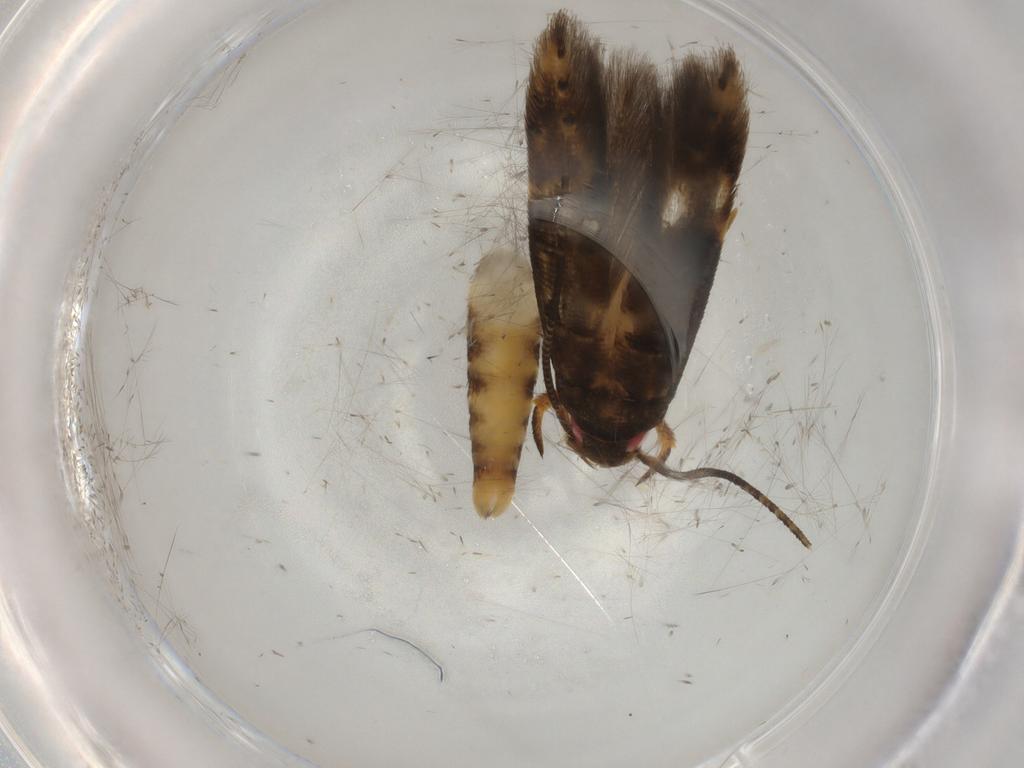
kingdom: Animalia
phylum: Arthropoda
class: Insecta
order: Lepidoptera
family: Cosmopterigidae
